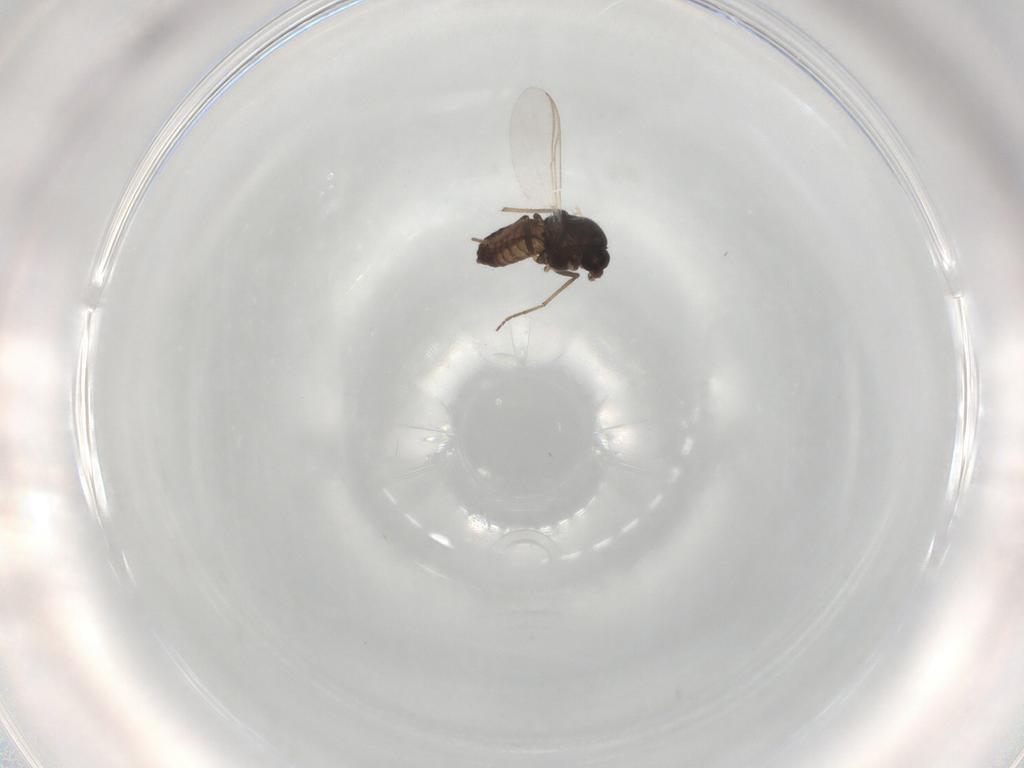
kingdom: Animalia
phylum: Arthropoda
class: Insecta
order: Diptera
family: Chironomidae
